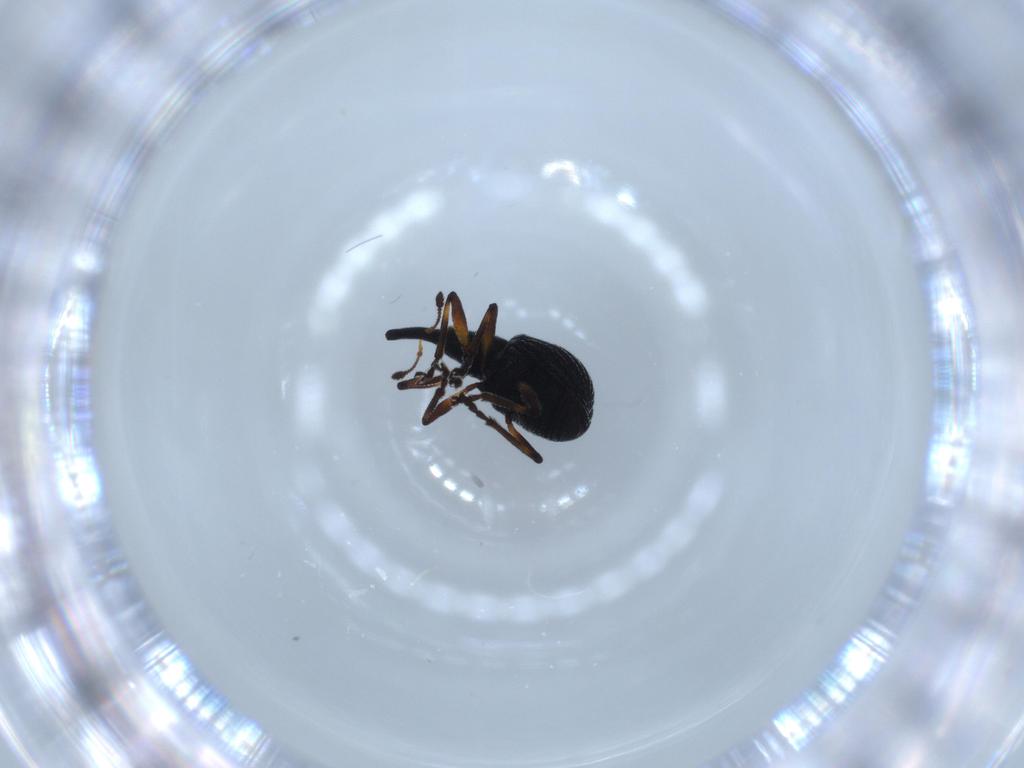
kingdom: Animalia
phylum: Arthropoda
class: Insecta
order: Coleoptera
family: Brentidae
